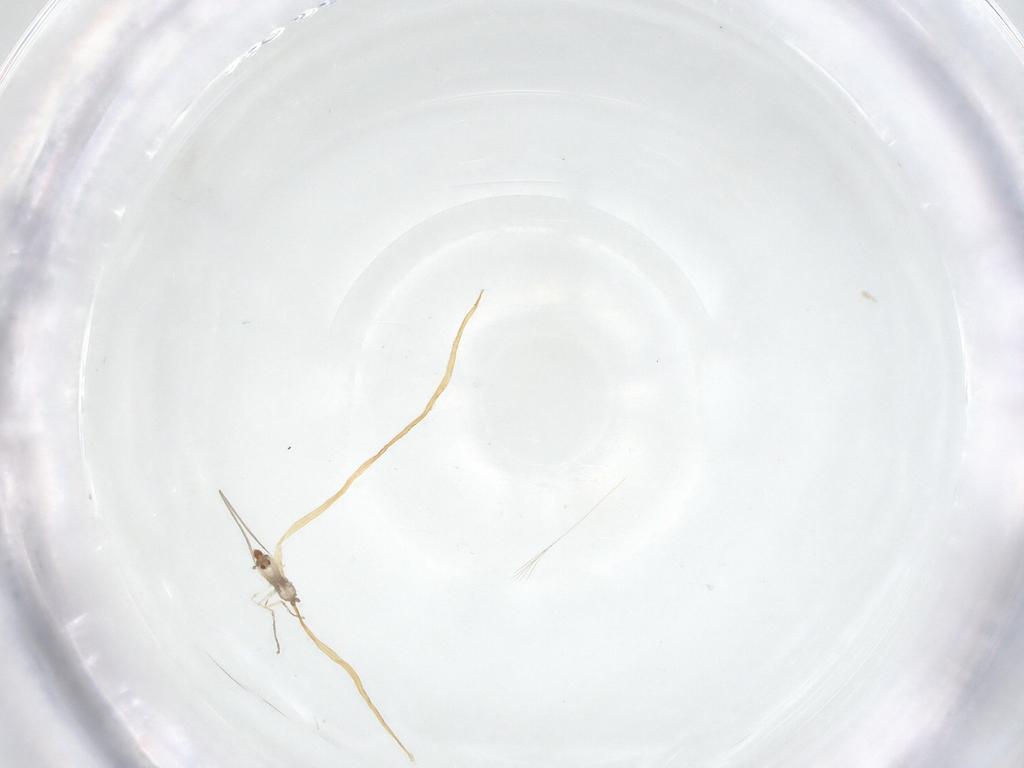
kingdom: Animalia
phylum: Arthropoda
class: Insecta
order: Diptera
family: Cecidomyiidae
